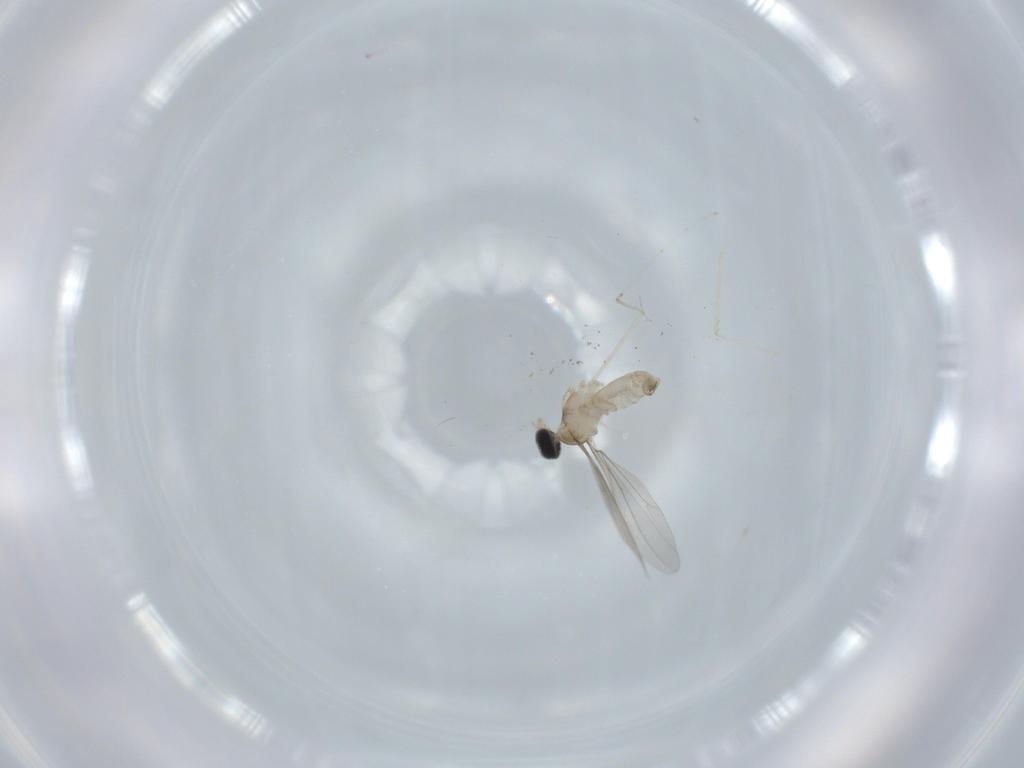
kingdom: Animalia
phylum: Arthropoda
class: Insecta
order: Diptera
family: Cecidomyiidae
